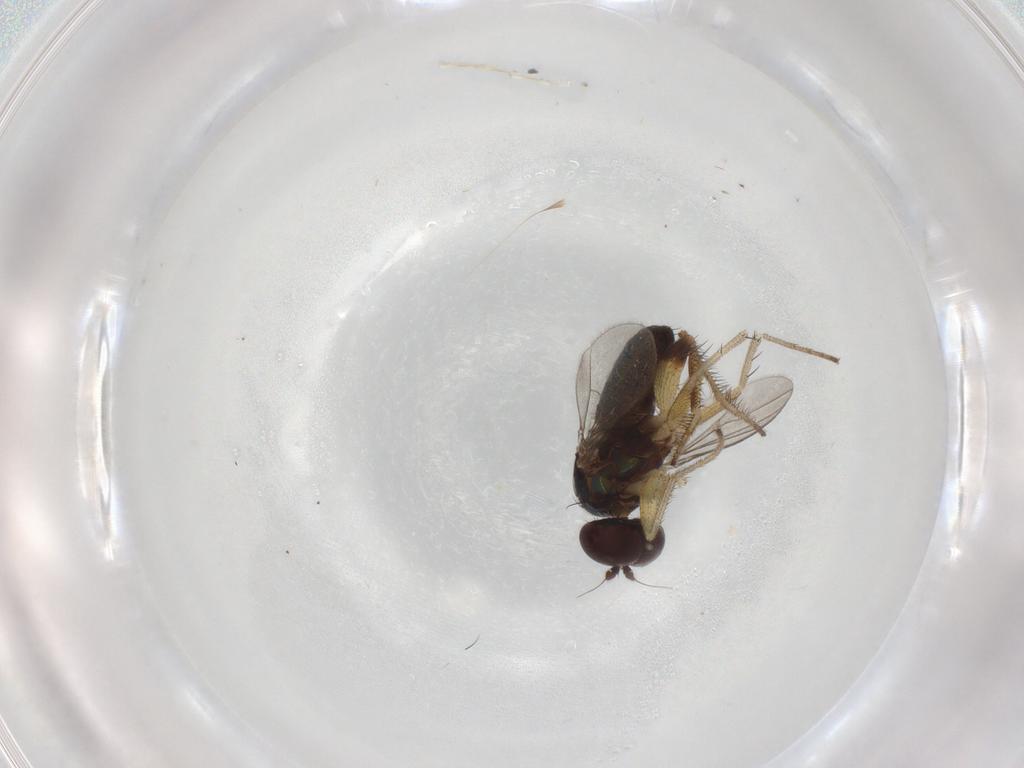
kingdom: Animalia
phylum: Arthropoda
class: Insecta
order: Diptera
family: Dolichopodidae
